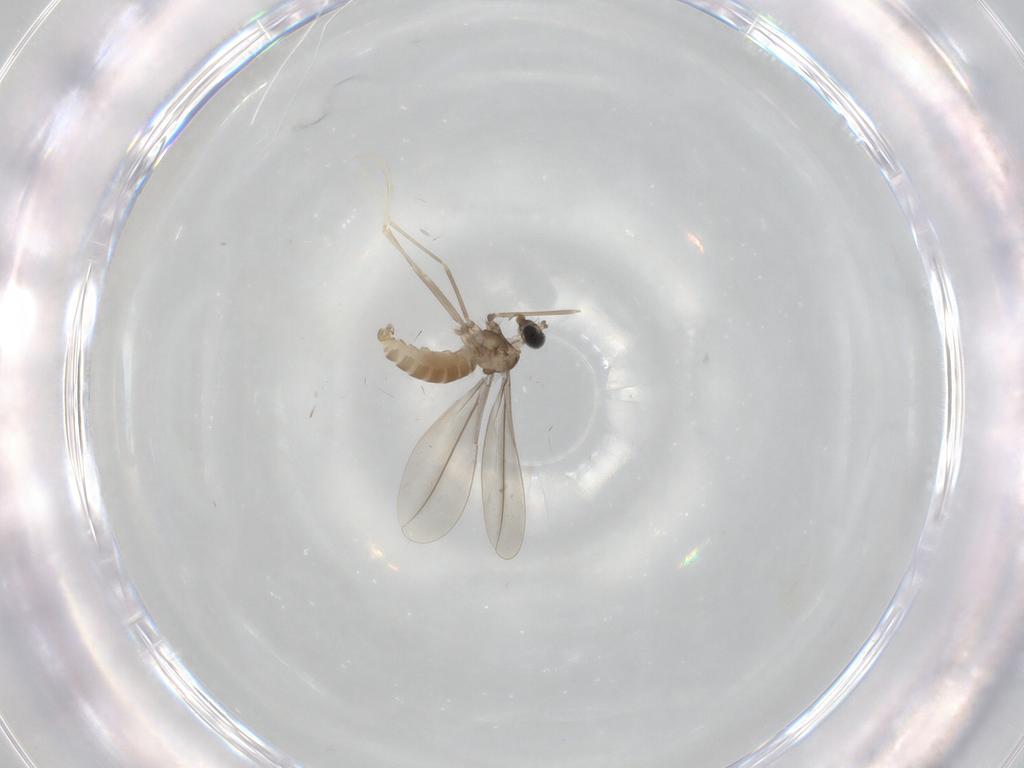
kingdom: Animalia
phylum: Arthropoda
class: Insecta
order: Diptera
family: Cecidomyiidae
